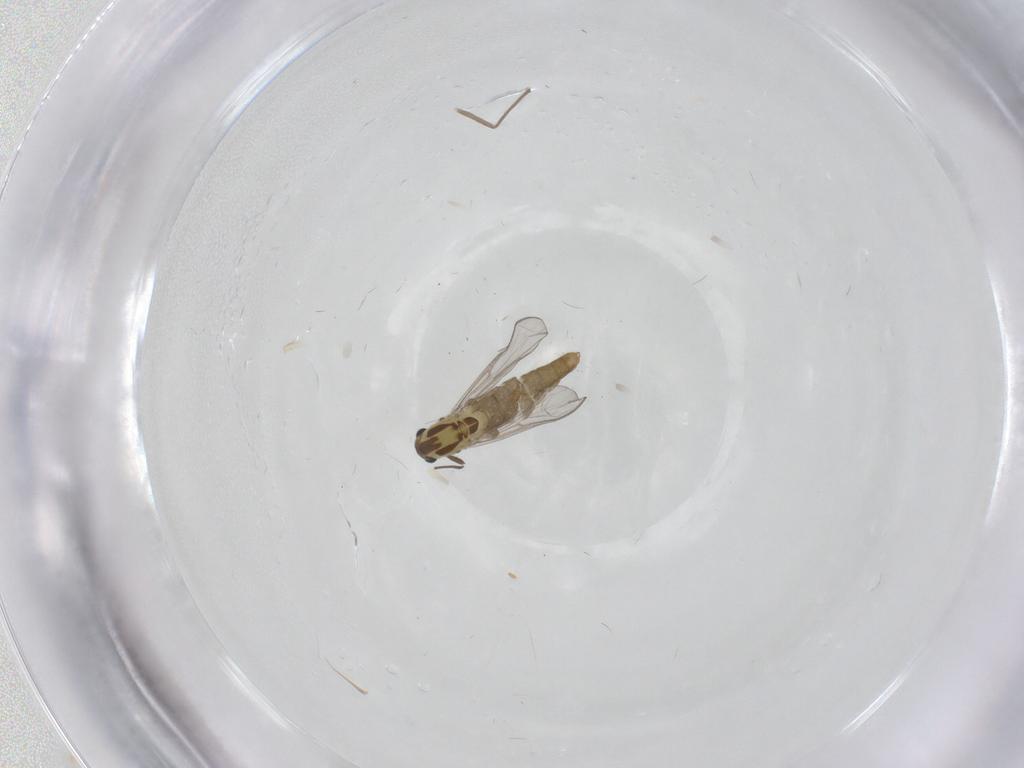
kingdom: Animalia
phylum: Arthropoda
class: Insecta
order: Diptera
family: Chironomidae
